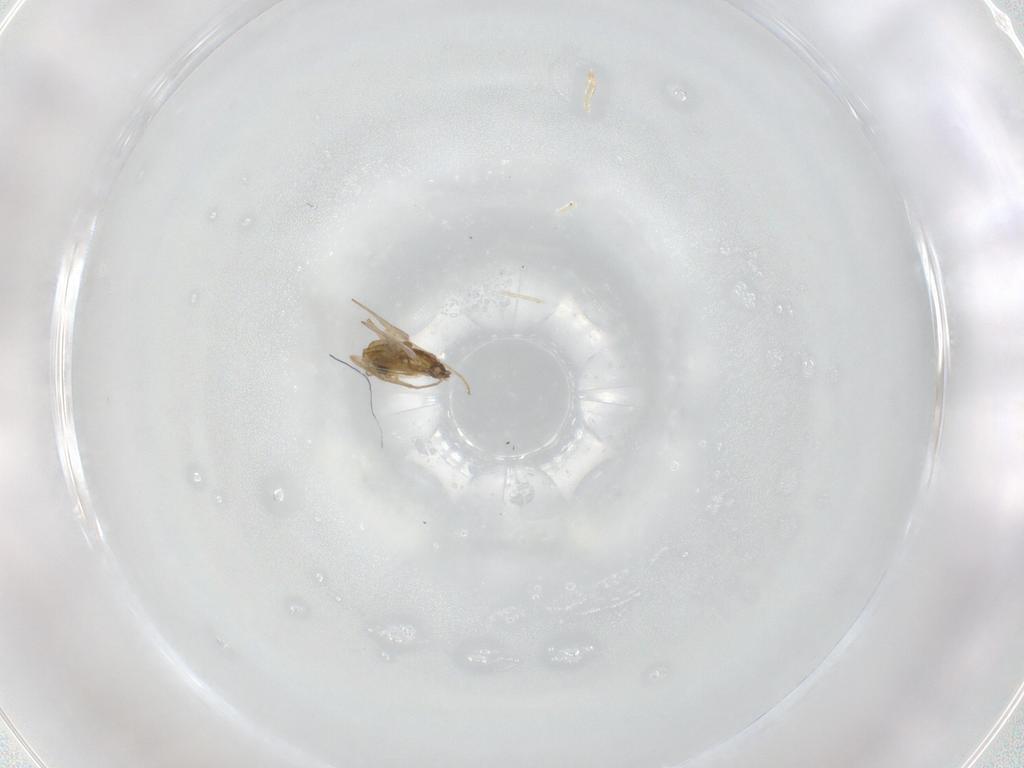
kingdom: Animalia
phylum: Arthropoda
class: Insecta
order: Diptera
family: Chironomidae
